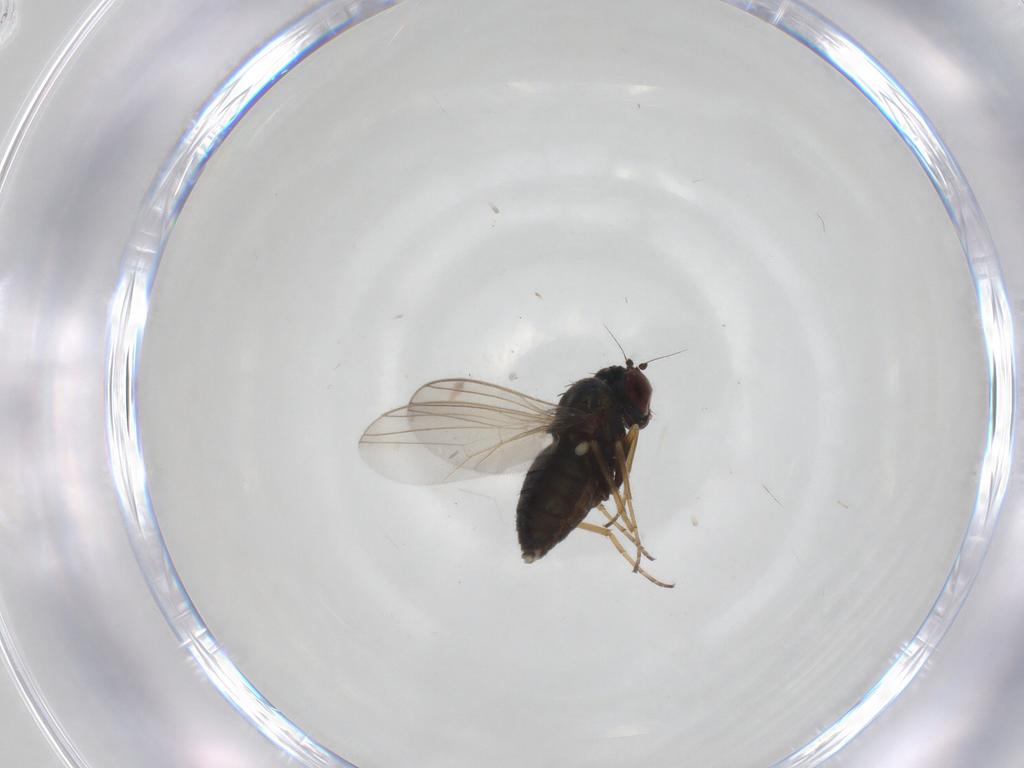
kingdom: Animalia
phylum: Arthropoda
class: Insecta
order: Diptera
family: Dolichopodidae
